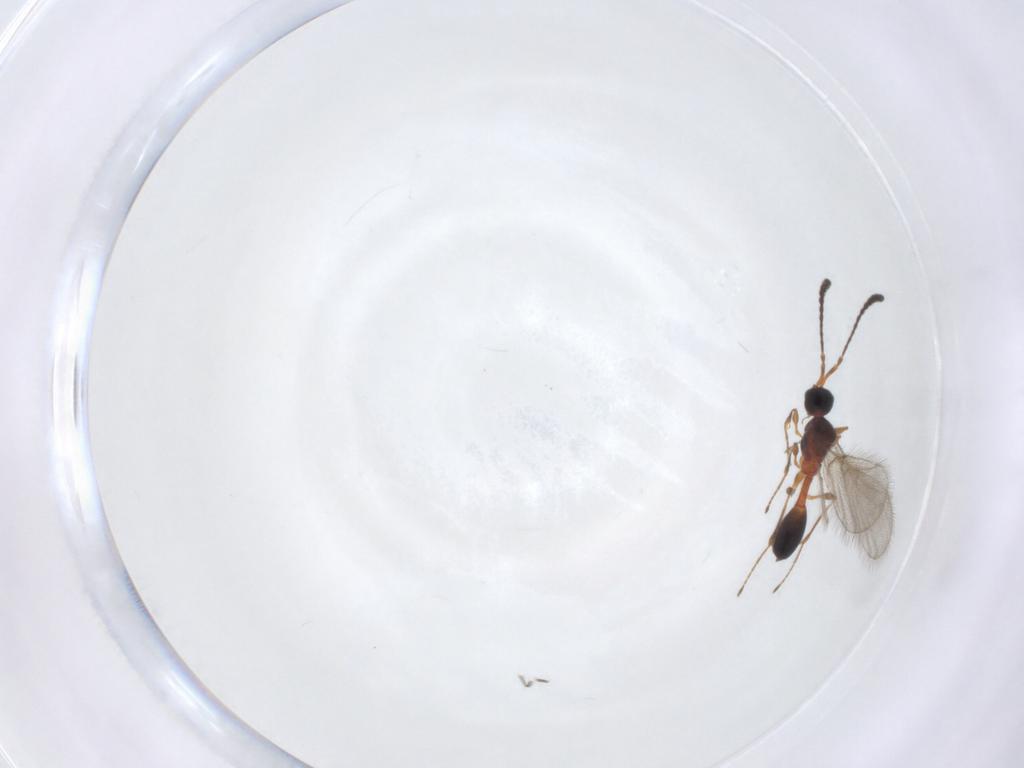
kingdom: Animalia
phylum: Arthropoda
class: Insecta
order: Hymenoptera
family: Diapriidae
